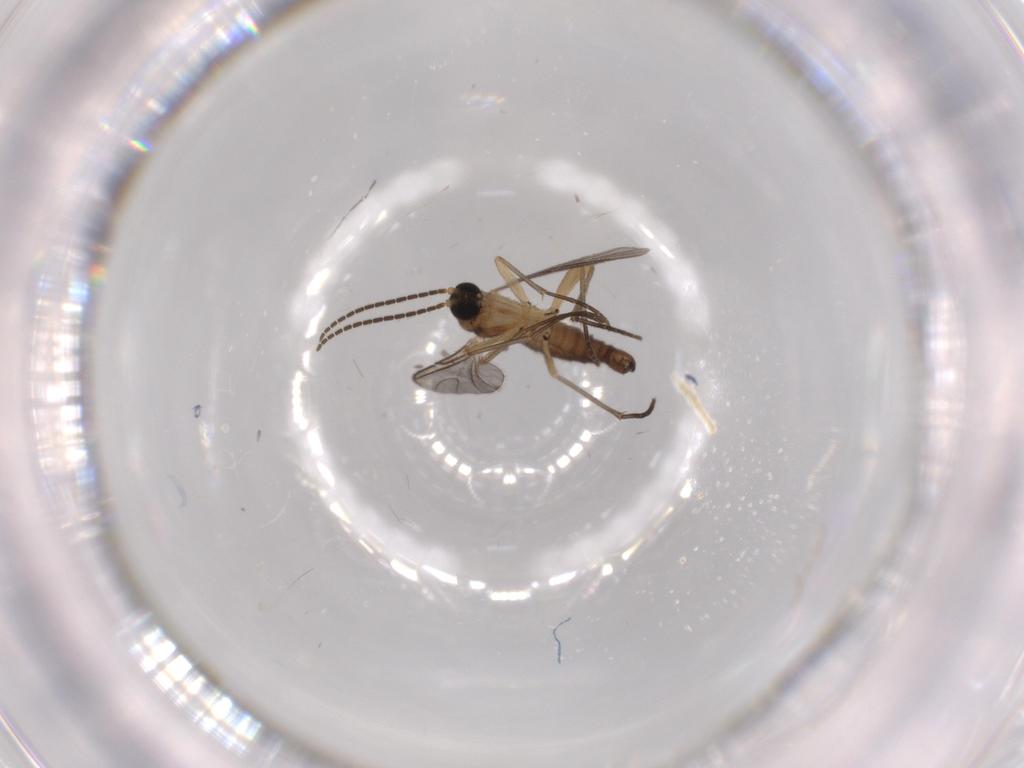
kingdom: Animalia
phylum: Arthropoda
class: Insecta
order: Diptera
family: Sciaridae
